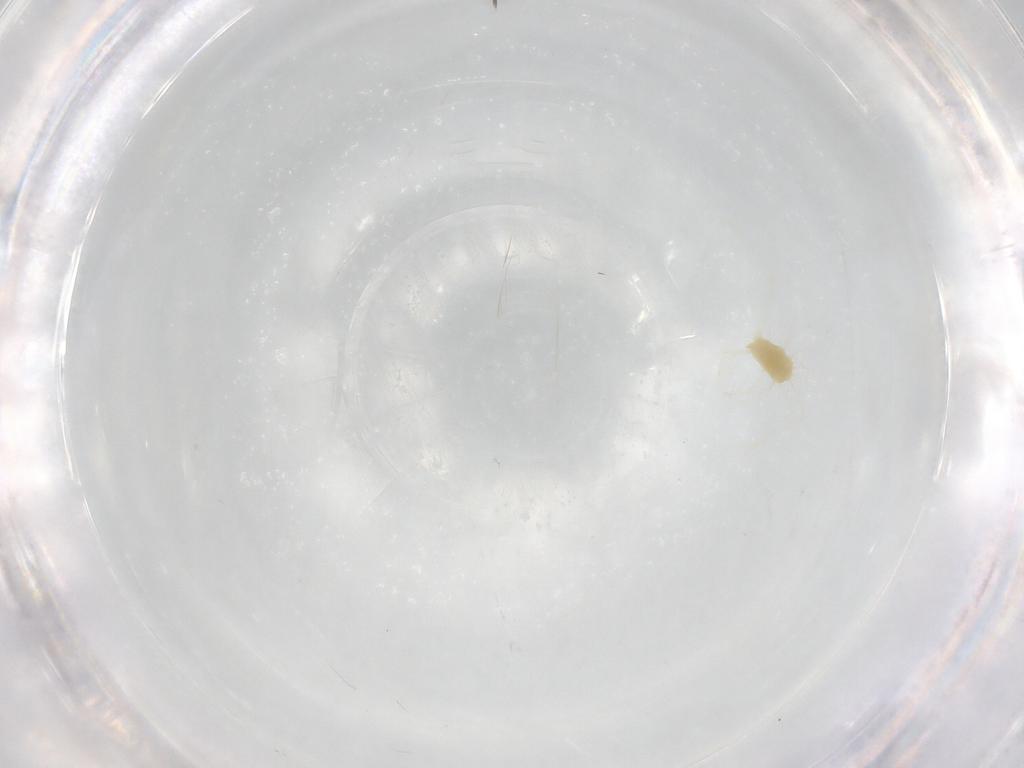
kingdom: Animalia
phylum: Arthropoda
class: Arachnida
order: Trombidiformes
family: Tetranychidae
